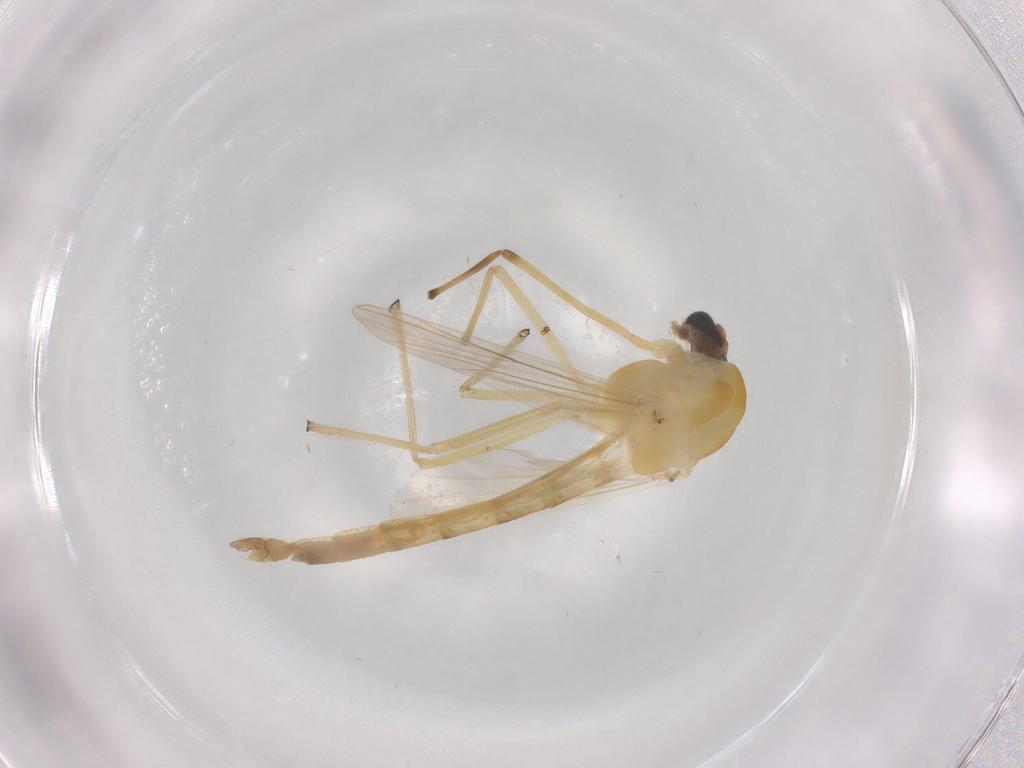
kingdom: Animalia
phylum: Arthropoda
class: Insecta
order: Diptera
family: Chironomidae
